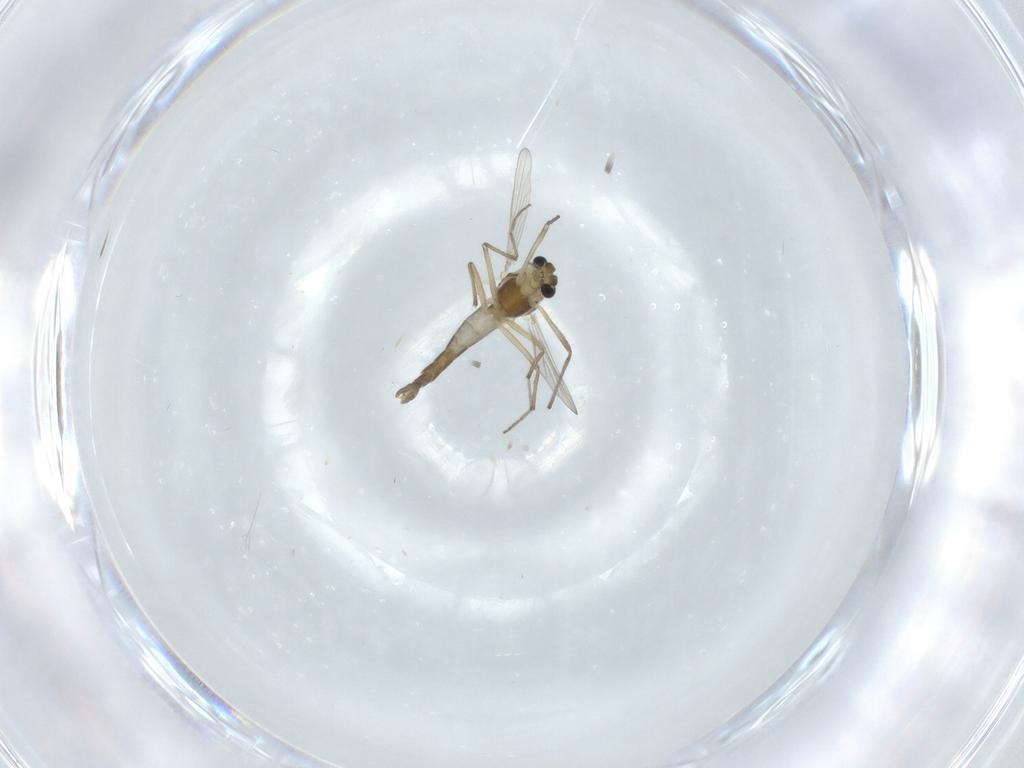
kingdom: Animalia
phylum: Arthropoda
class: Insecta
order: Diptera
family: Chironomidae
